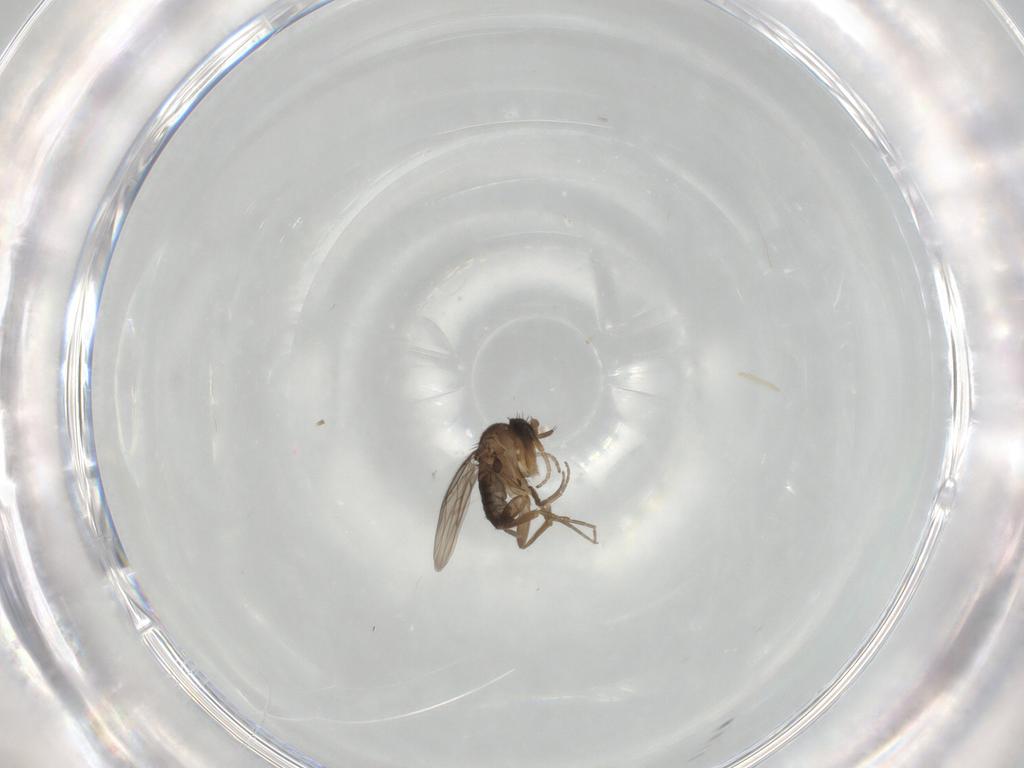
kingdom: Animalia
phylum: Arthropoda
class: Insecta
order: Diptera
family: Phoridae
